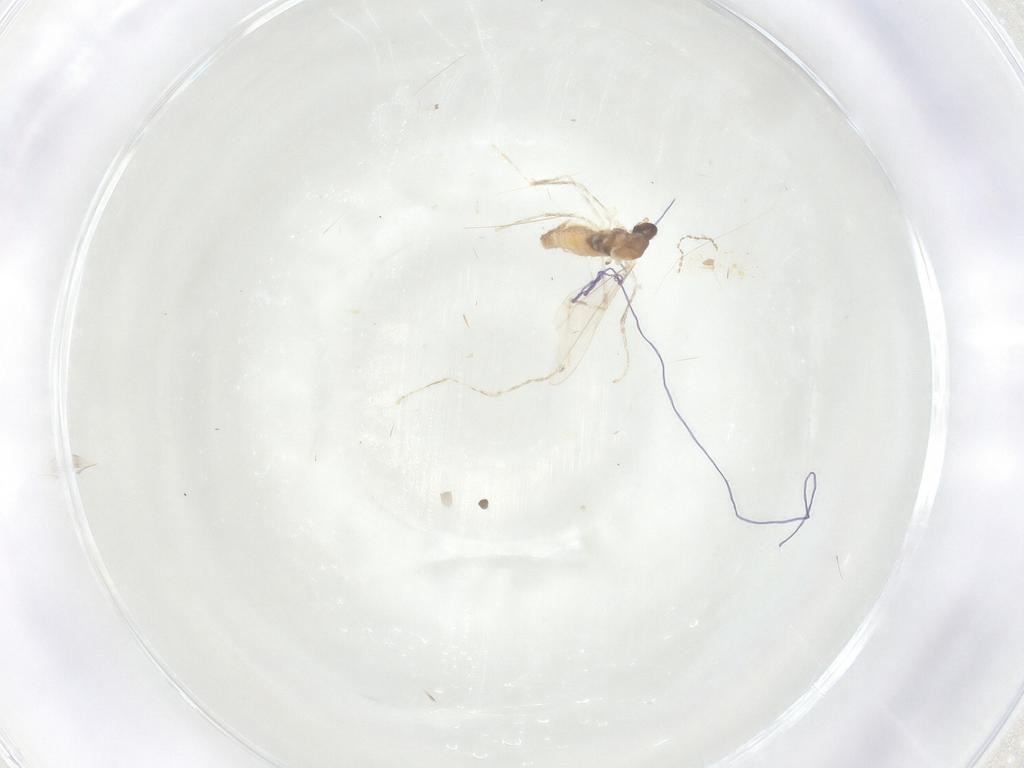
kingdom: Animalia
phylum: Arthropoda
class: Insecta
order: Diptera
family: Cecidomyiidae
